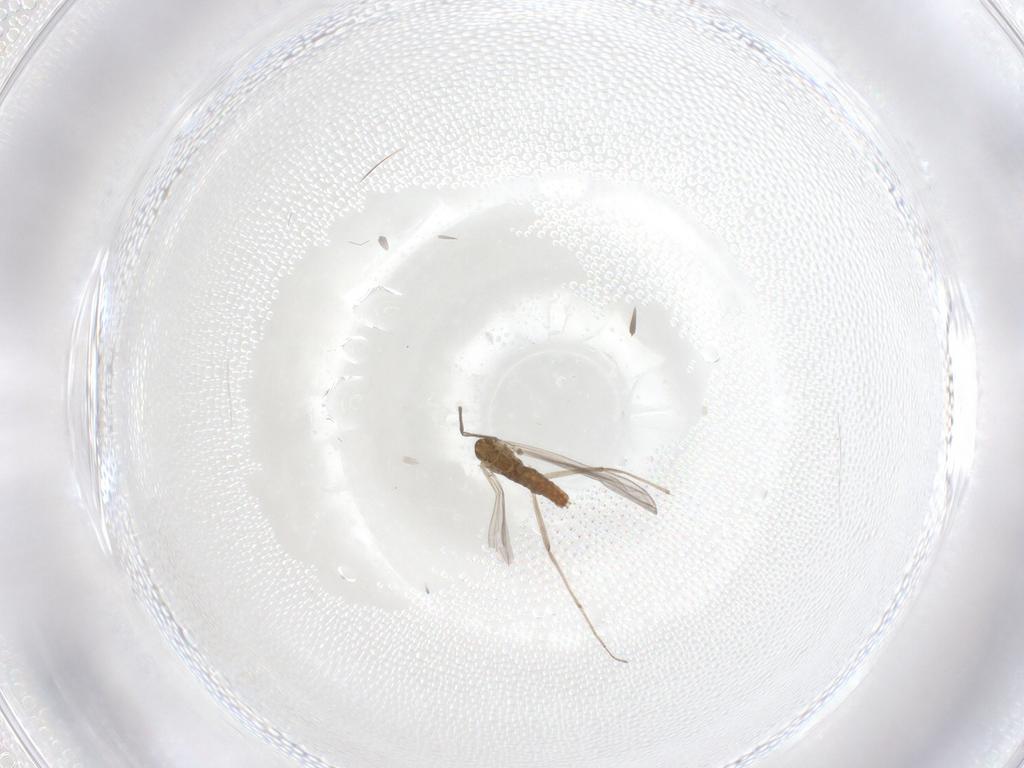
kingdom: Animalia
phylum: Arthropoda
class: Insecta
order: Diptera
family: Chironomidae
